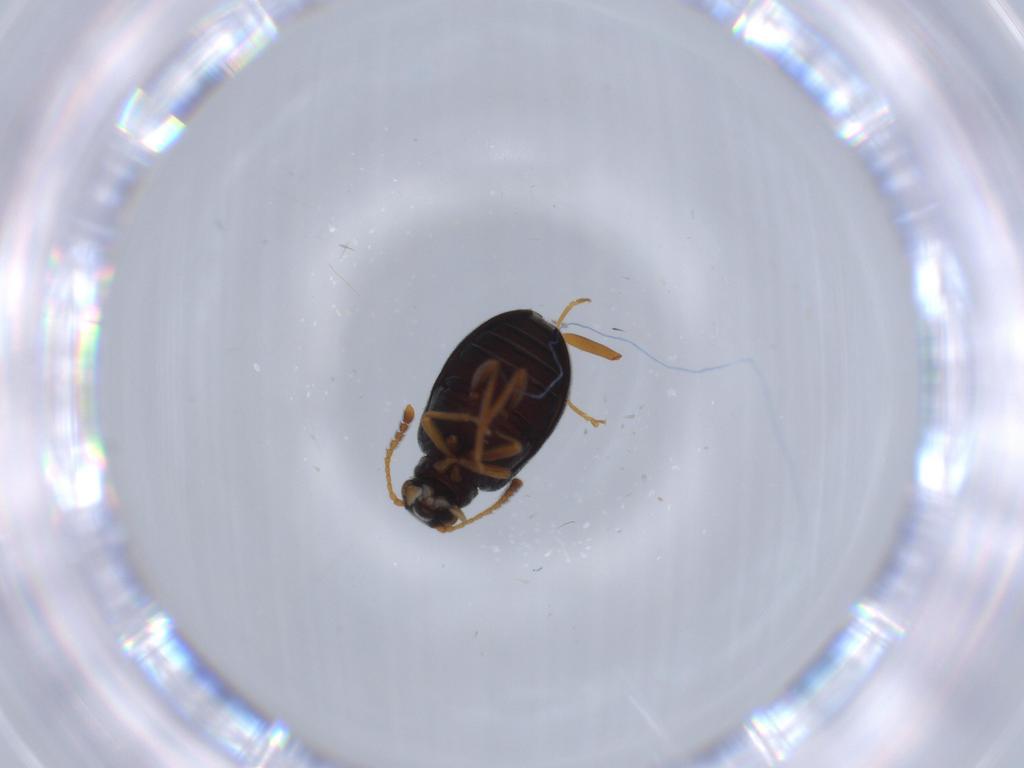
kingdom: Animalia
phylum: Arthropoda
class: Insecta
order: Coleoptera
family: Aderidae
